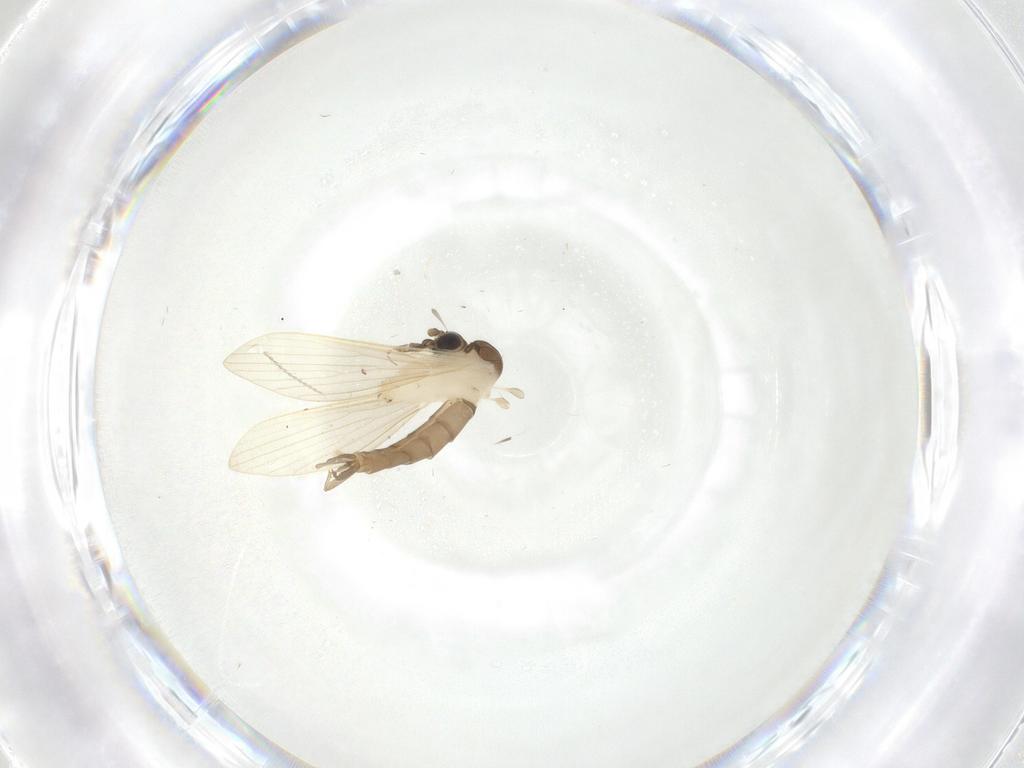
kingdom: Animalia
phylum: Arthropoda
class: Insecta
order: Diptera
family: Psychodidae
